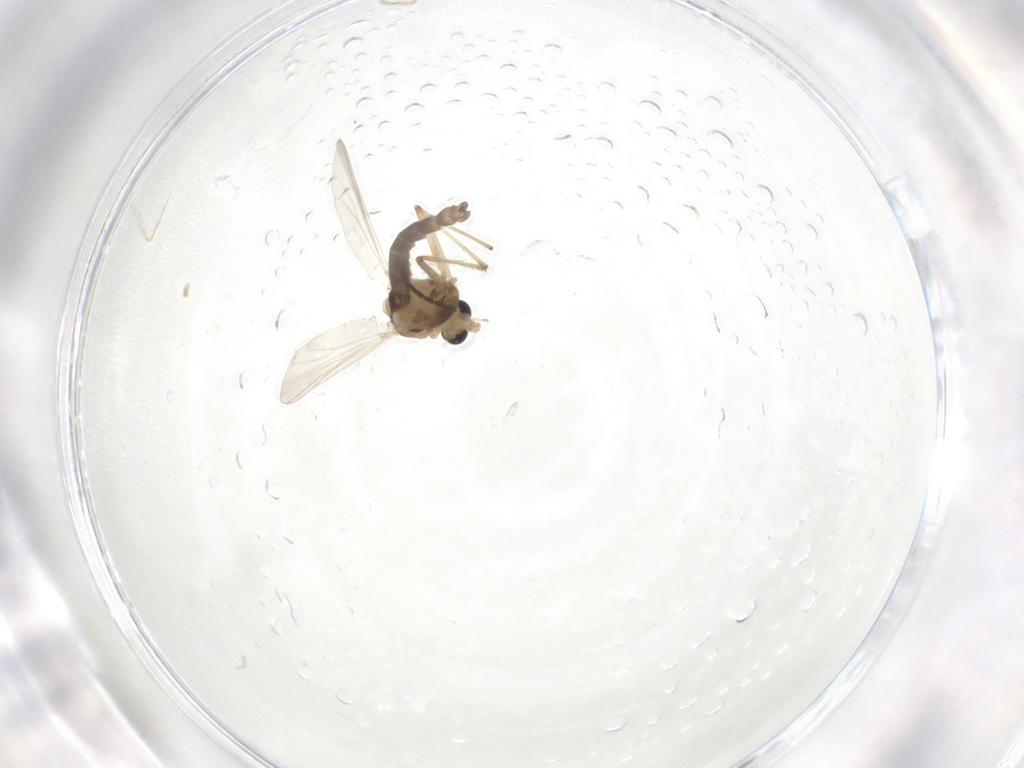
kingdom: Animalia
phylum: Arthropoda
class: Insecta
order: Diptera
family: Chironomidae
